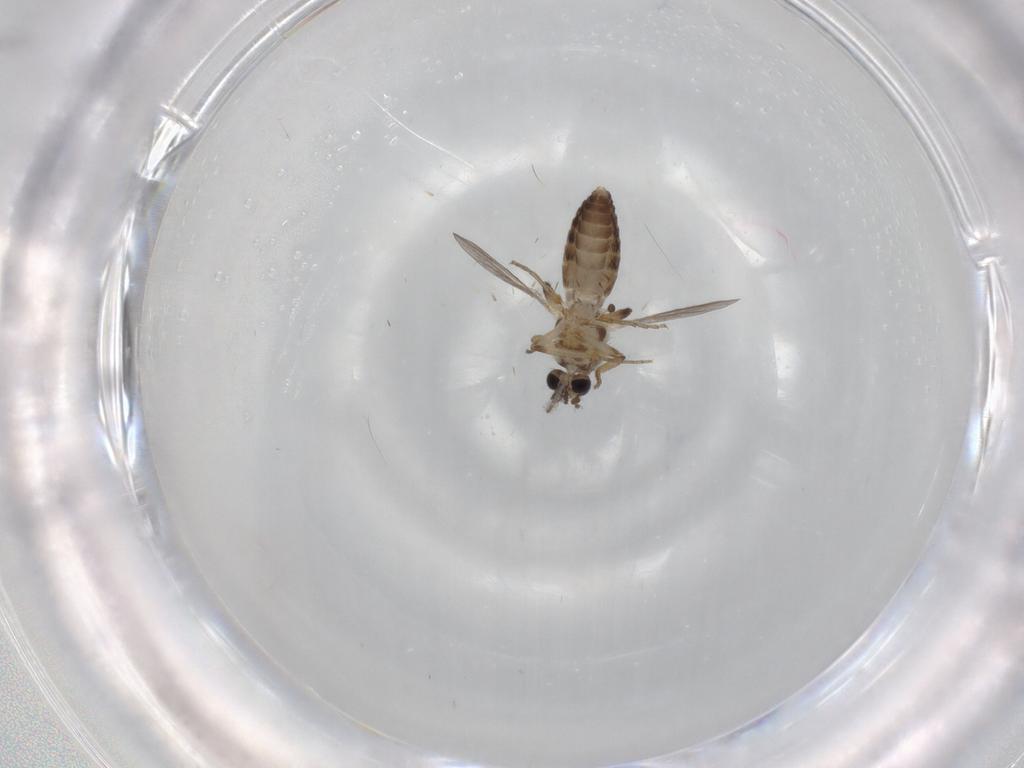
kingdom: Animalia
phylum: Arthropoda
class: Insecta
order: Diptera
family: Ceratopogonidae
